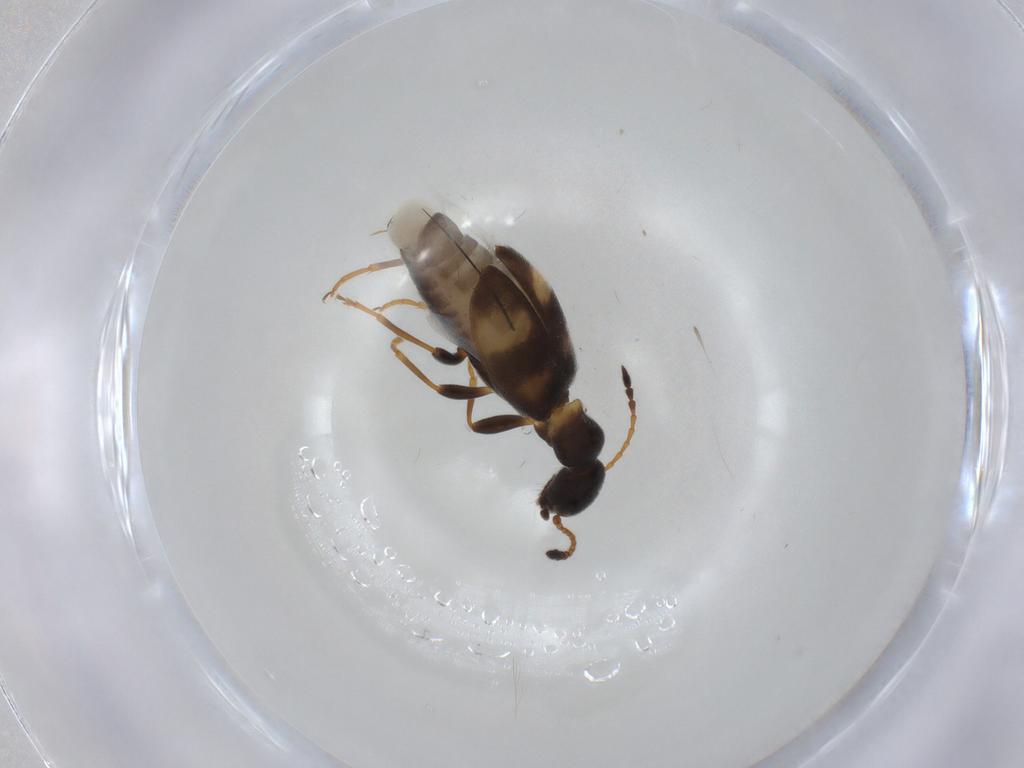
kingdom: Animalia
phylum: Arthropoda
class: Insecta
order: Coleoptera
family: Anthicidae
